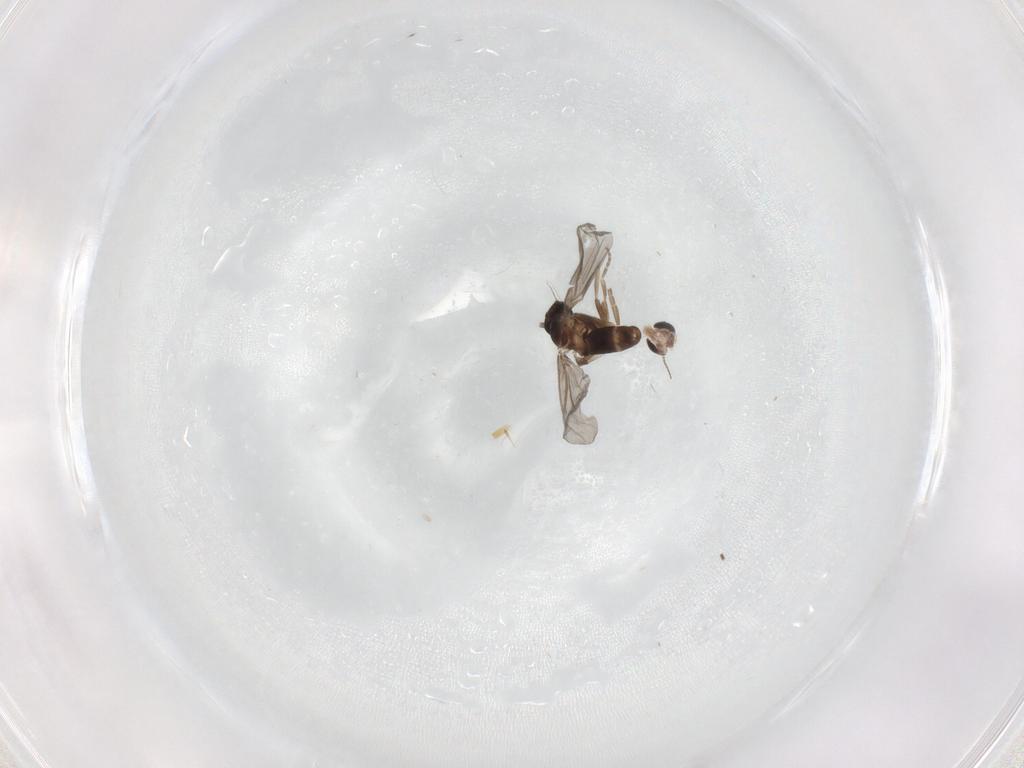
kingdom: Animalia
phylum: Arthropoda
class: Insecta
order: Diptera
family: Chironomidae
